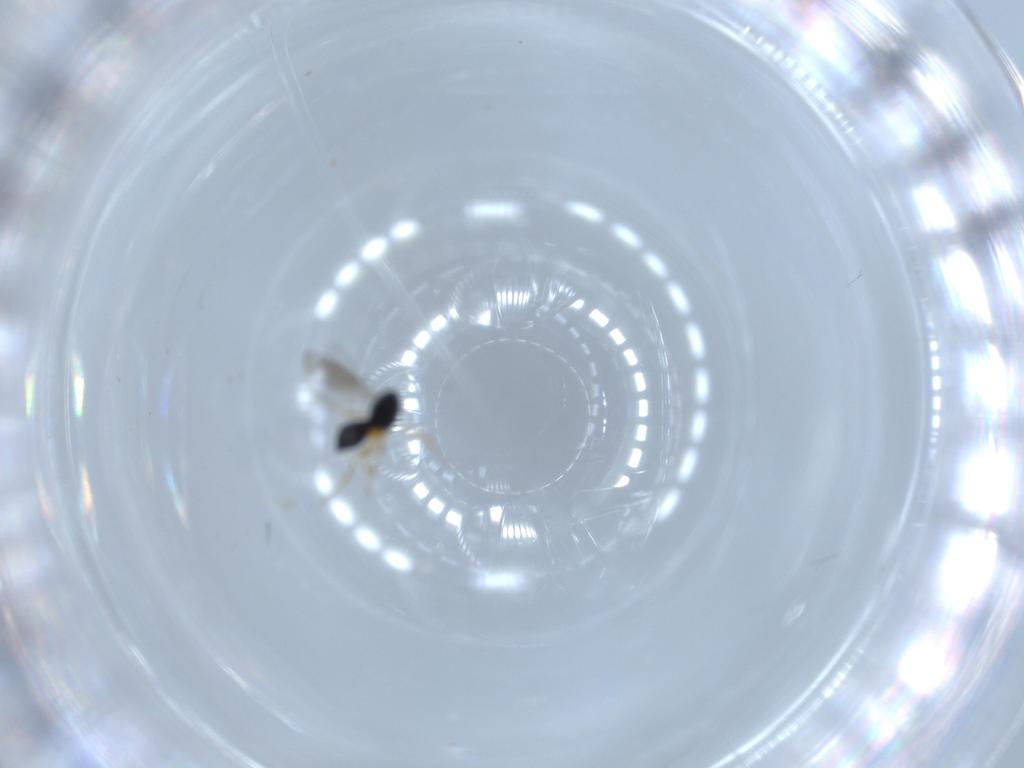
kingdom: Animalia
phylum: Arthropoda
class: Insecta
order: Hymenoptera
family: Scelionidae
